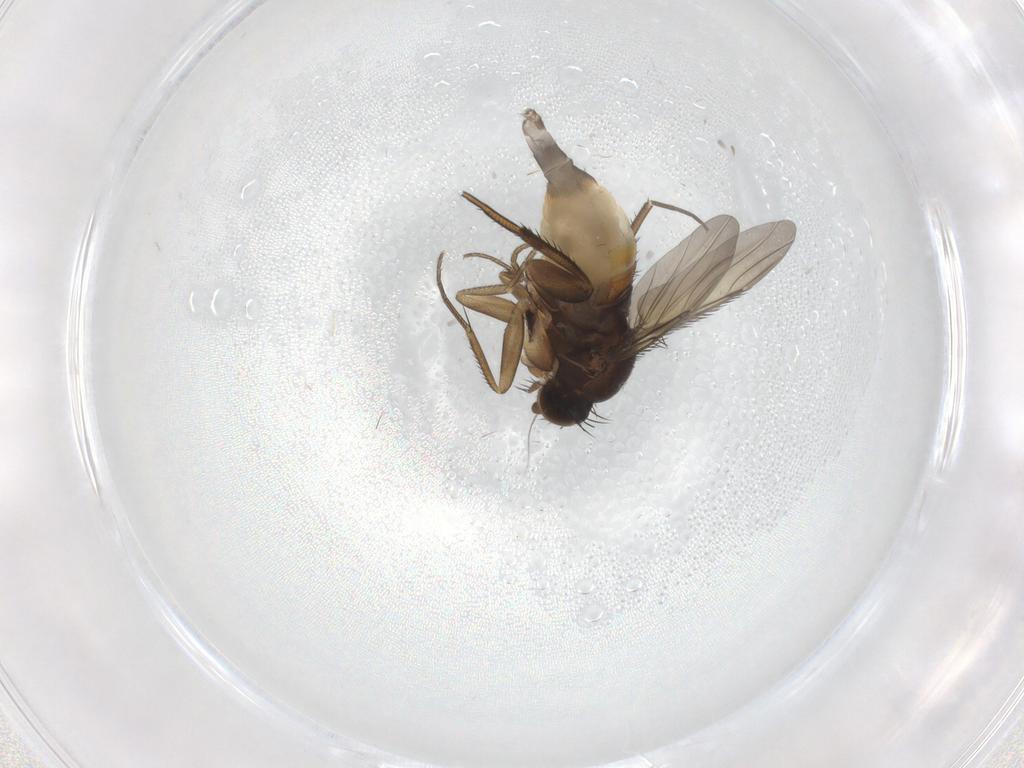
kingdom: Animalia
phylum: Arthropoda
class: Insecta
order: Diptera
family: Phoridae
